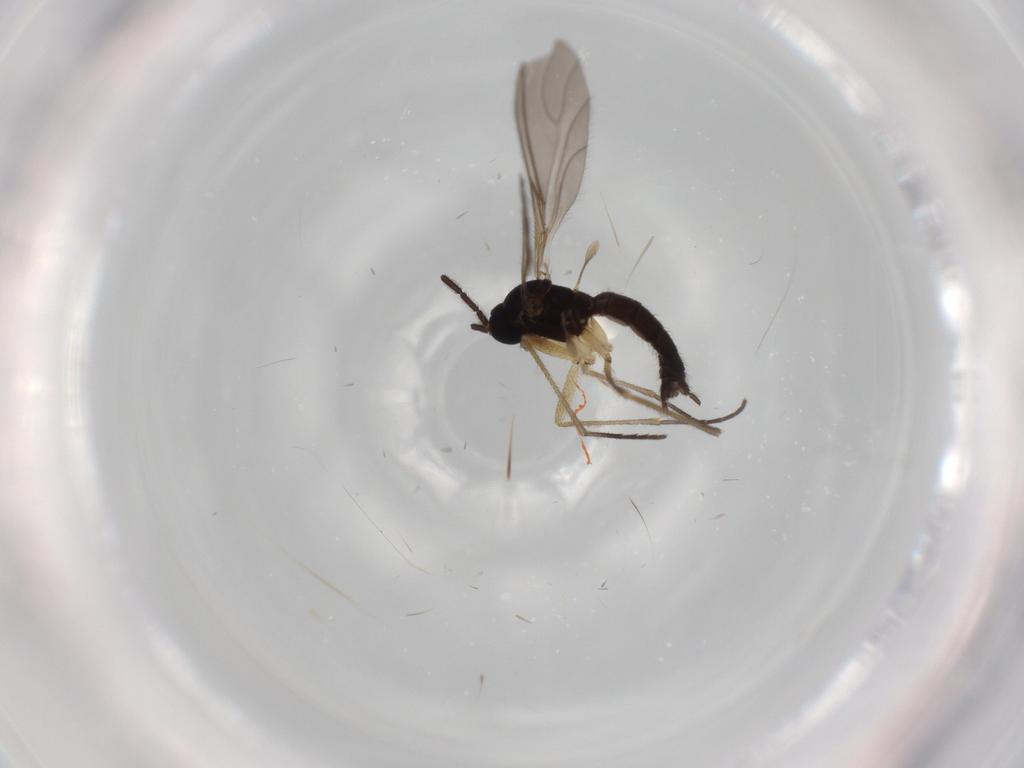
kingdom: Animalia
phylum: Arthropoda
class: Insecta
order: Diptera
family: Sciaridae
